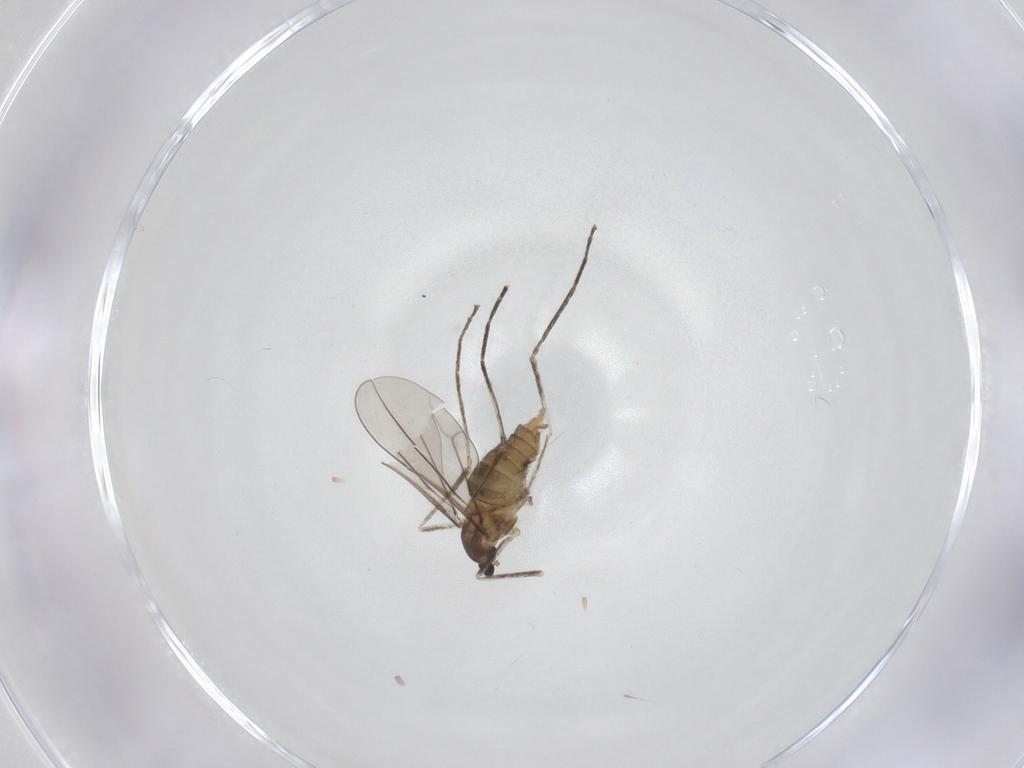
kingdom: Animalia
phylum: Arthropoda
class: Insecta
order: Diptera
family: Cecidomyiidae
